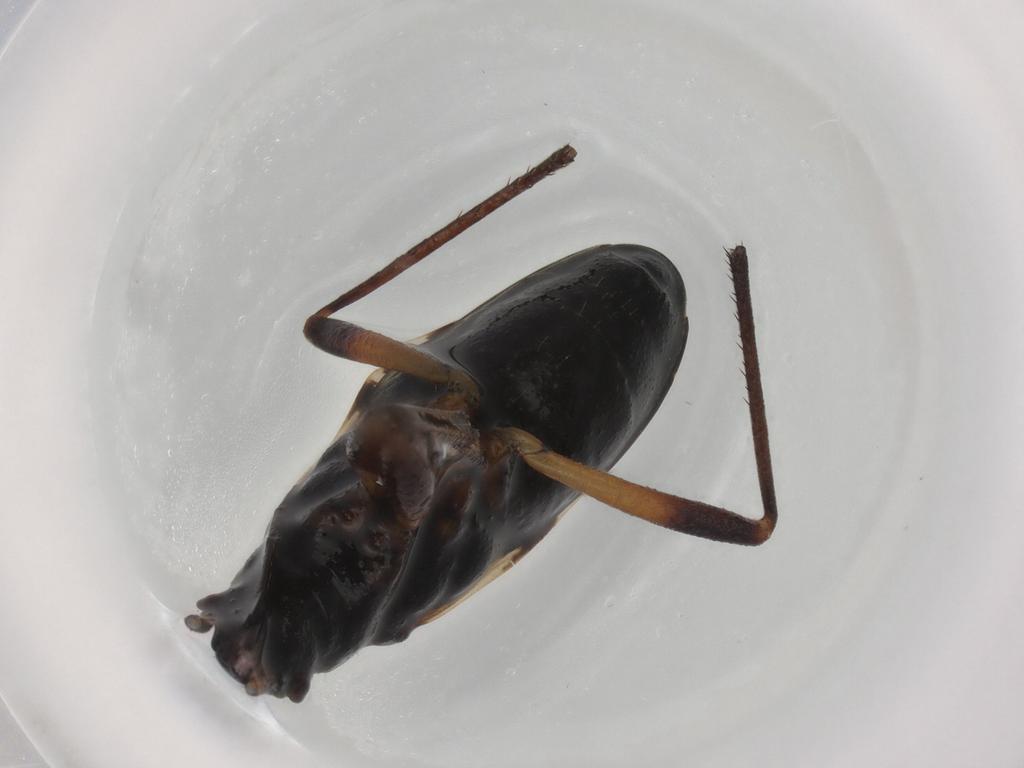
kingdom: Animalia
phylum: Arthropoda
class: Insecta
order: Hemiptera
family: Rhyparochromidae
